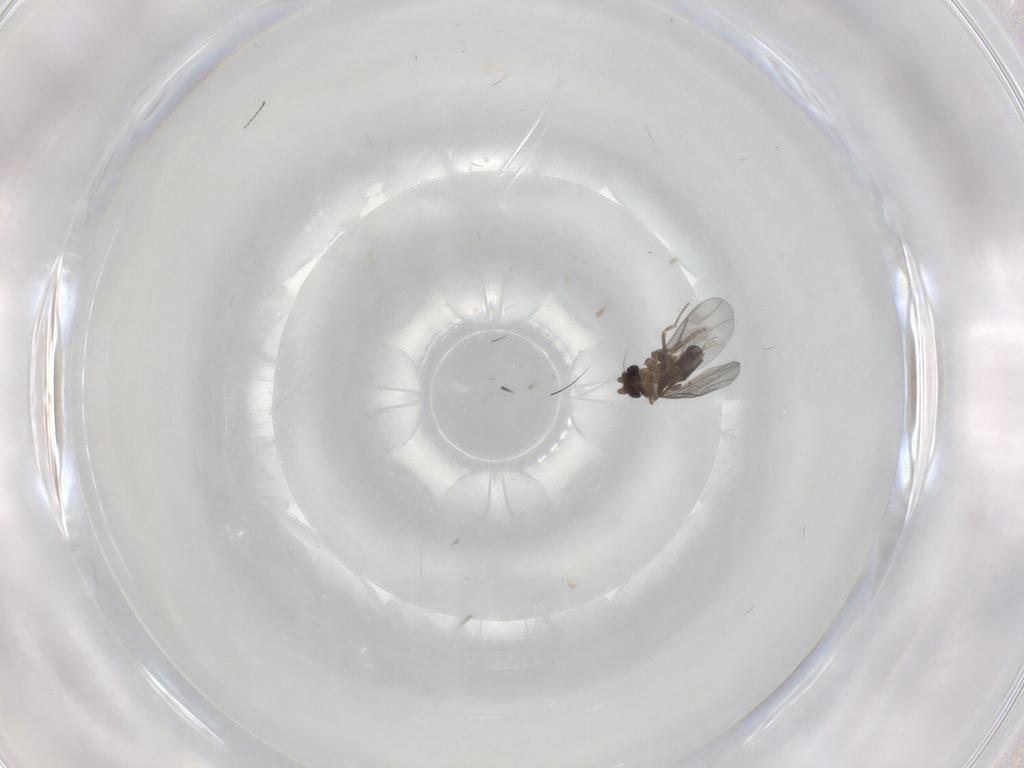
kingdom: Animalia
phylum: Arthropoda
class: Insecta
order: Diptera
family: Cecidomyiidae
